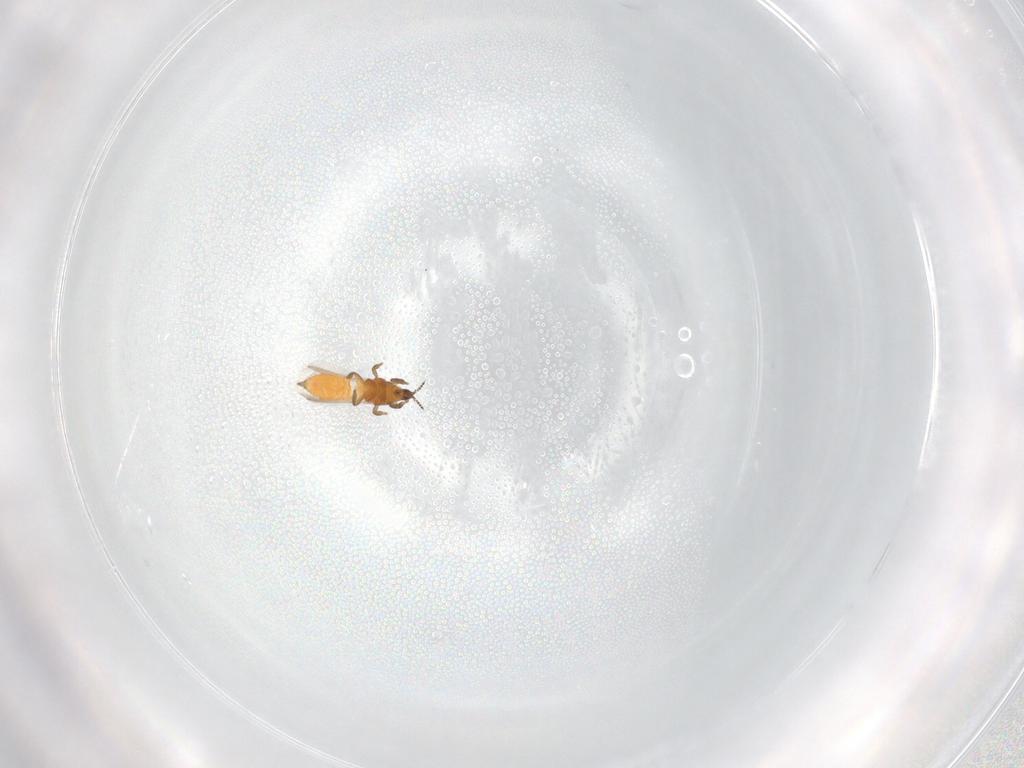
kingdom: Animalia
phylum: Arthropoda
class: Insecta
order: Thysanoptera
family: Thripidae
